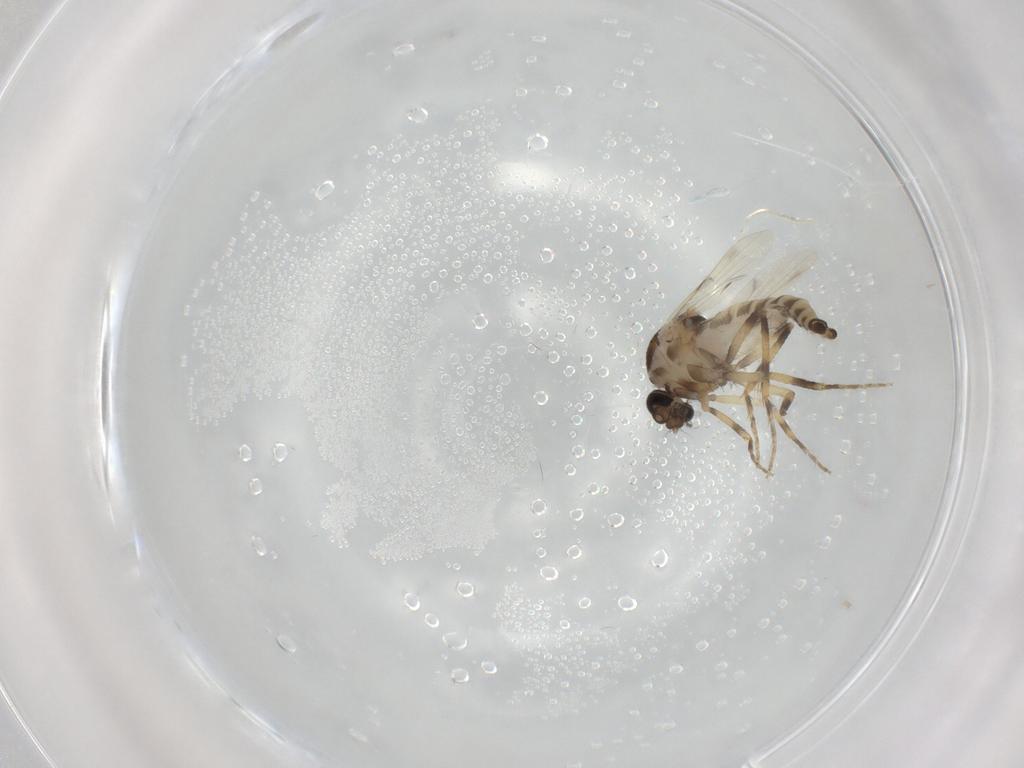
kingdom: Animalia
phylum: Arthropoda
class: Insecta
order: Diptera
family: Ceratopogonidae
